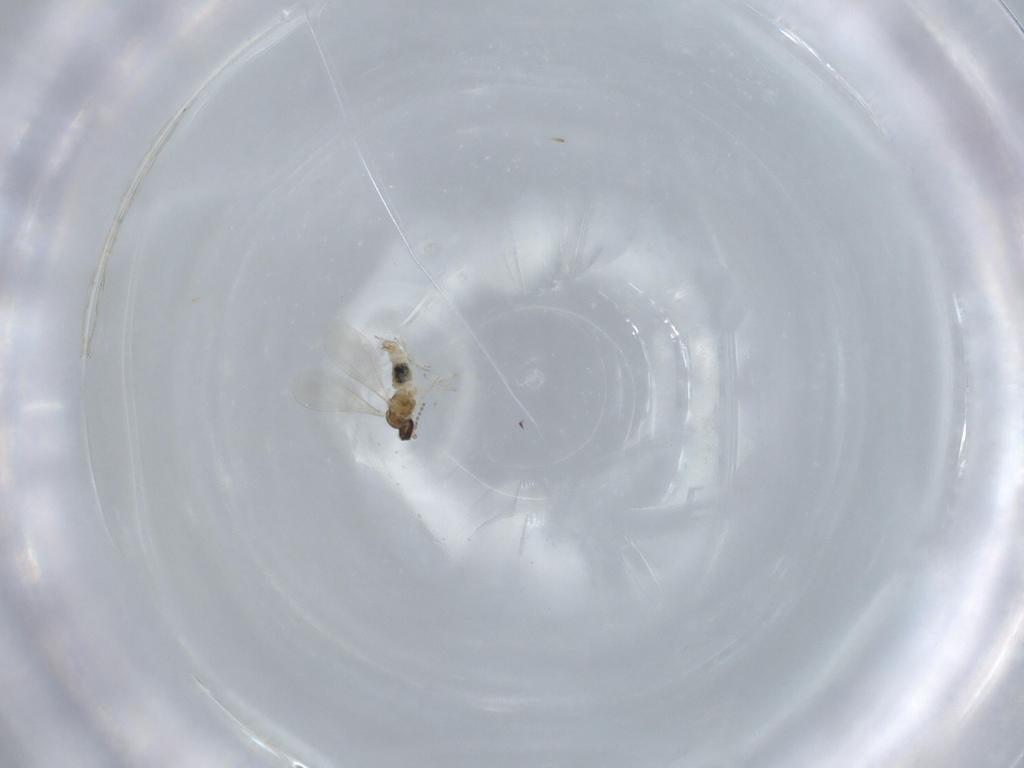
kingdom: Animalia
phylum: Arthropoda
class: Insecta
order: Diptera
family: Cecidomyiidae
